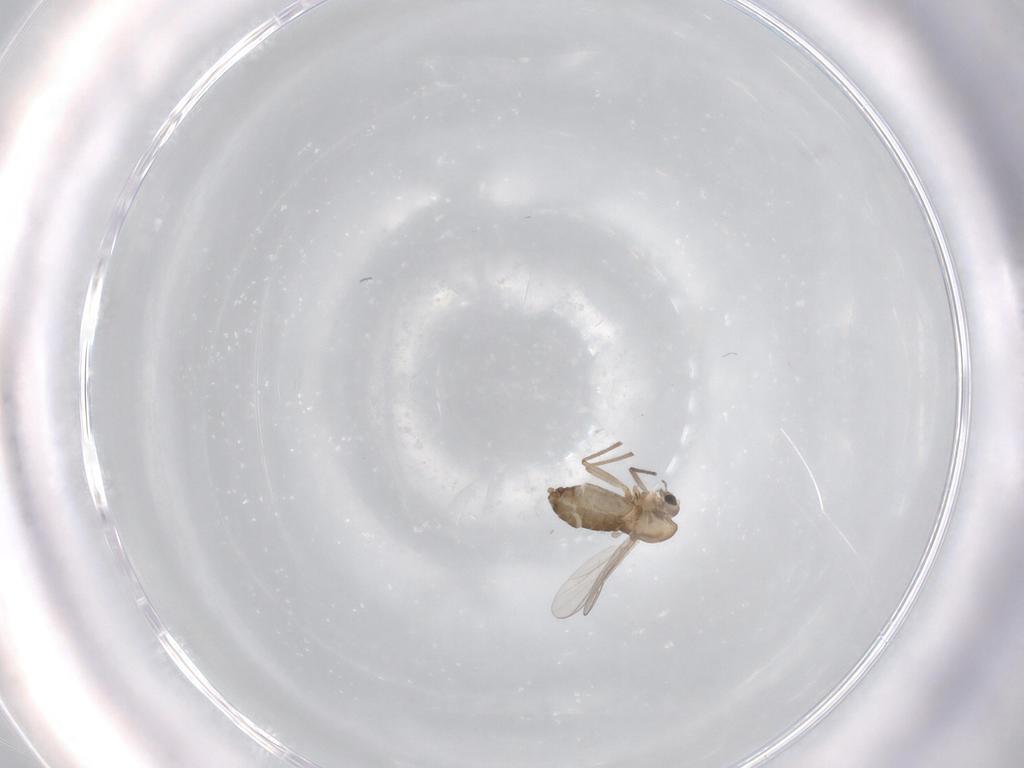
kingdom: Animalia
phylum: Arthropoda
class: Insecta
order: Diptera
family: Chironomidae
